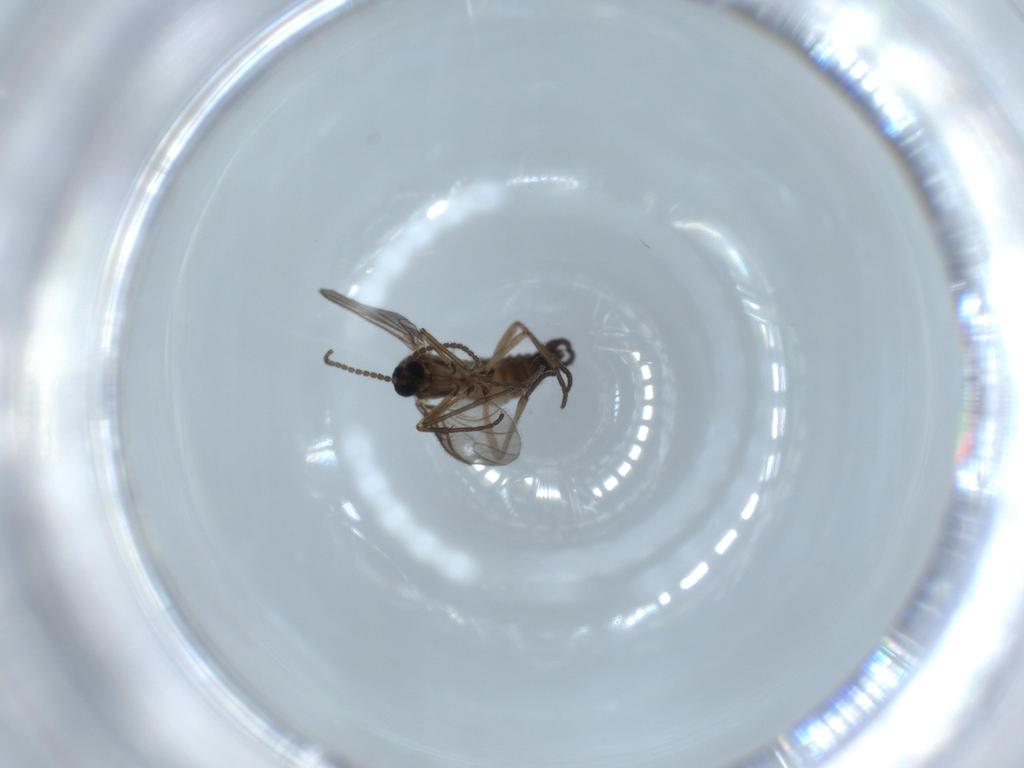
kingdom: Animalia
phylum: Arthropoda
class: Insecta
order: Diptera
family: Sciaridae
